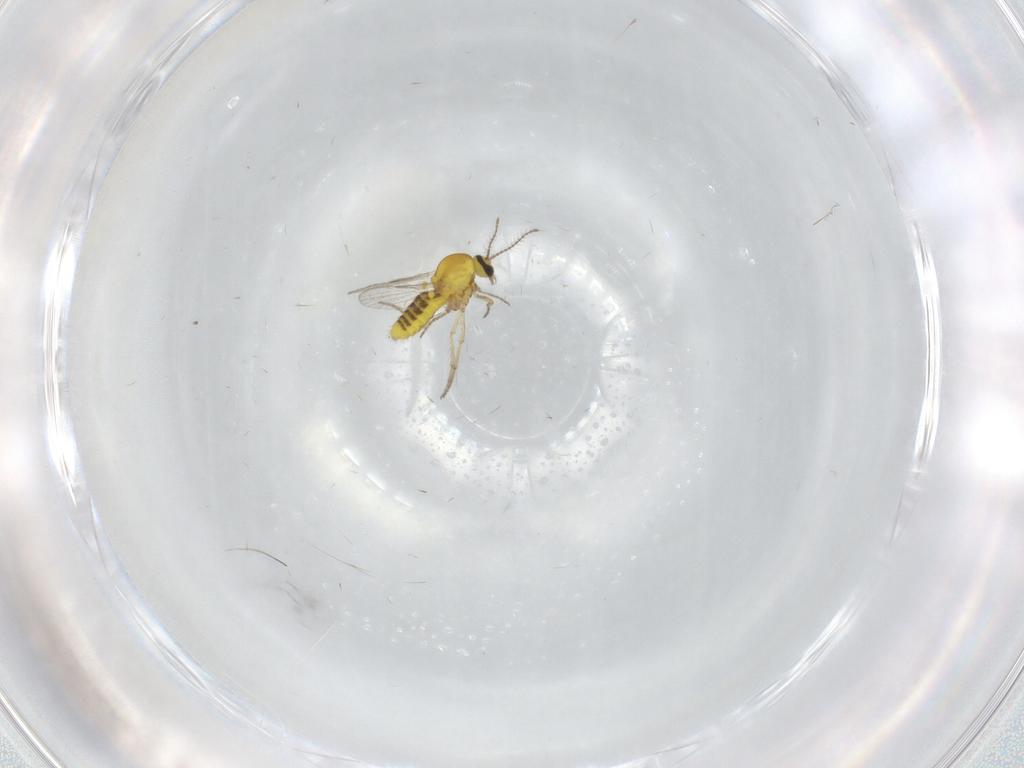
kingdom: Animalia
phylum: Arthropoda
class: Insecta
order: Diptera
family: Ceratopogonidae
